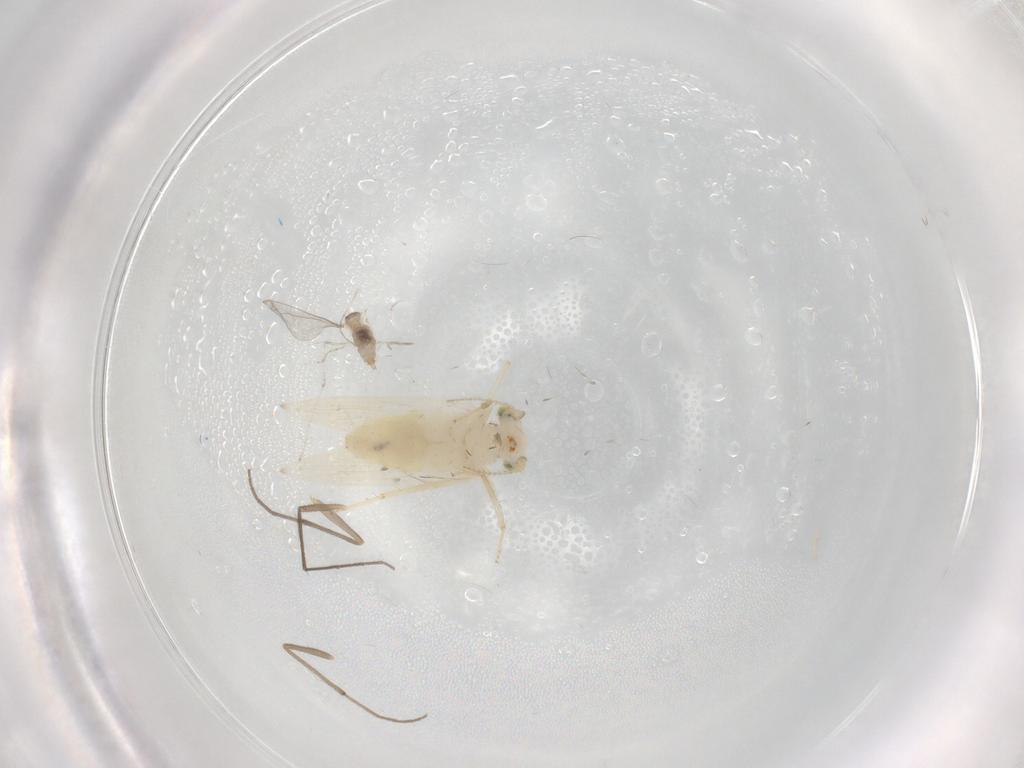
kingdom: Animalia
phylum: Arthropoda
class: Insecta
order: Psocodea
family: Lepidopsocidae
